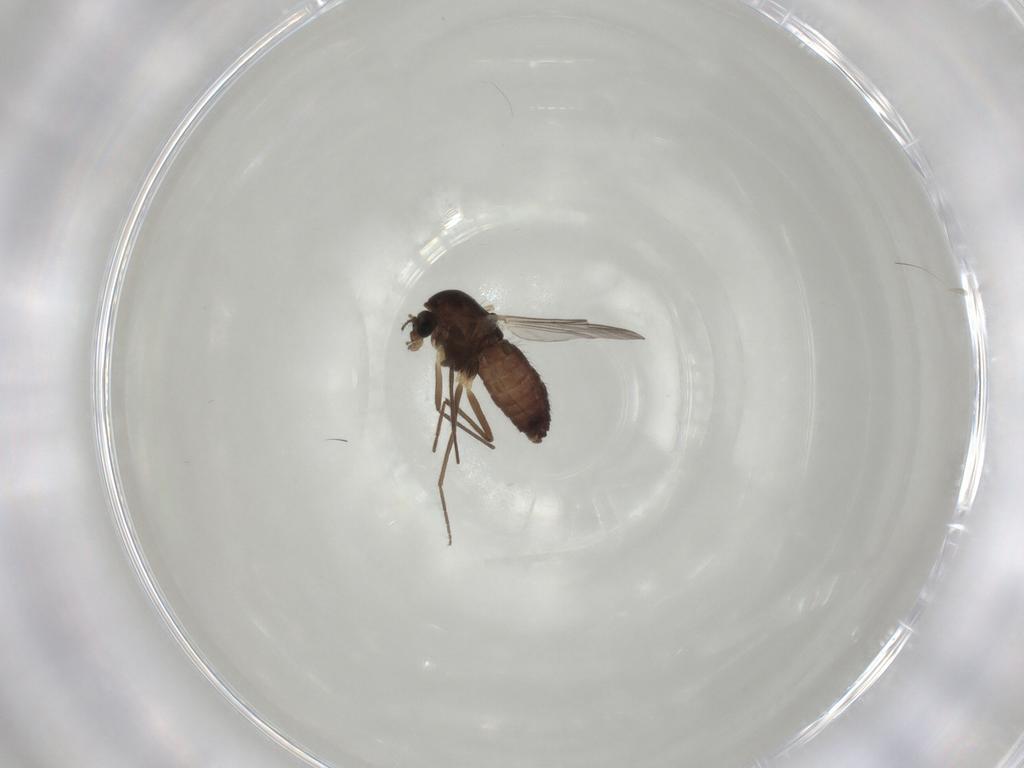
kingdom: Animalia
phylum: Arthropoda
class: Insecta
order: Diptera
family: Chironomidae
